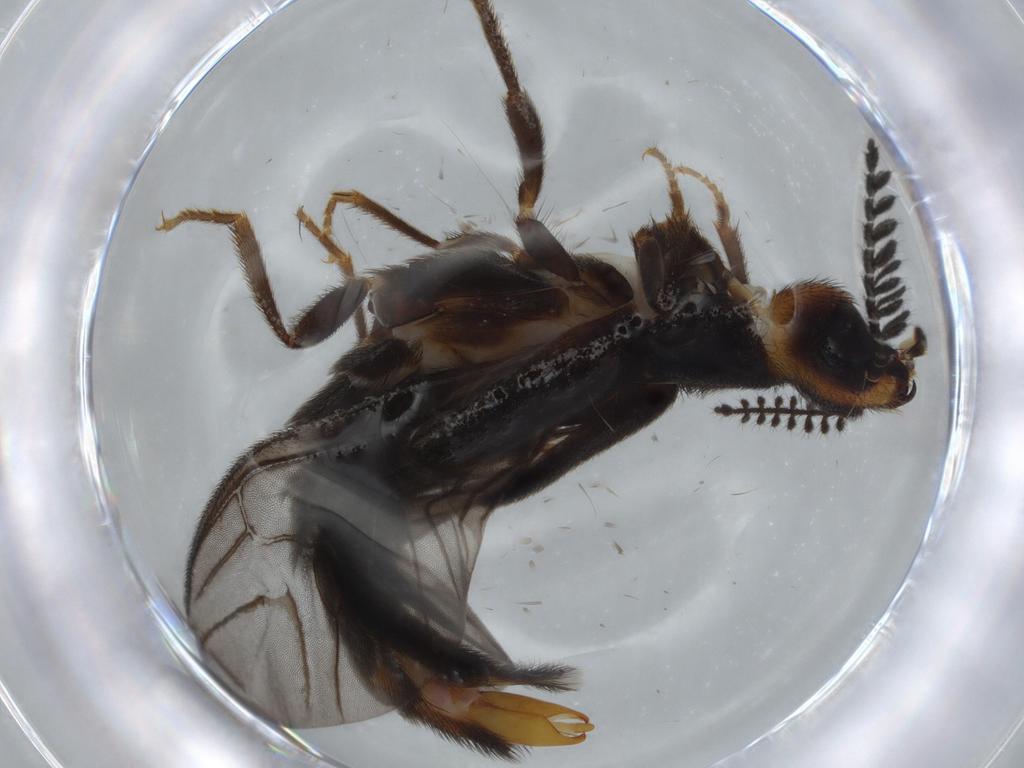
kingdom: Animalia
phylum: Arthropoda
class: Insecta
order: Coleoptera
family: Phengodidae
